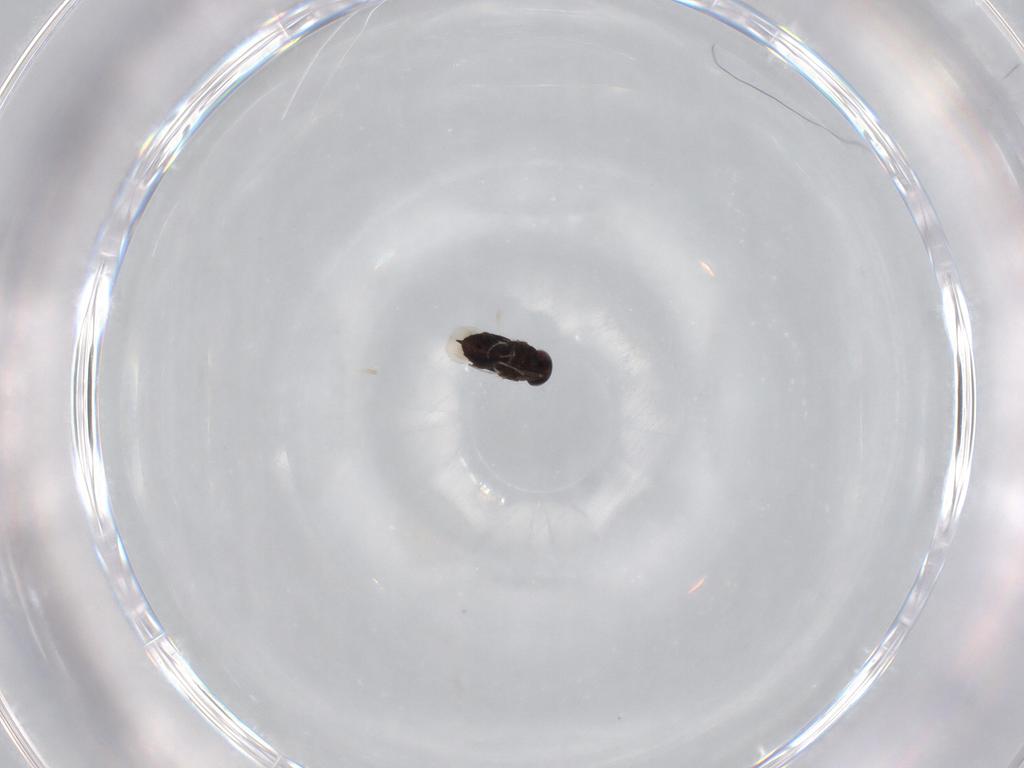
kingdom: Animalia
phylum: Arthropoda
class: Insecta
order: Hymenoptera
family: Signiphoridae
